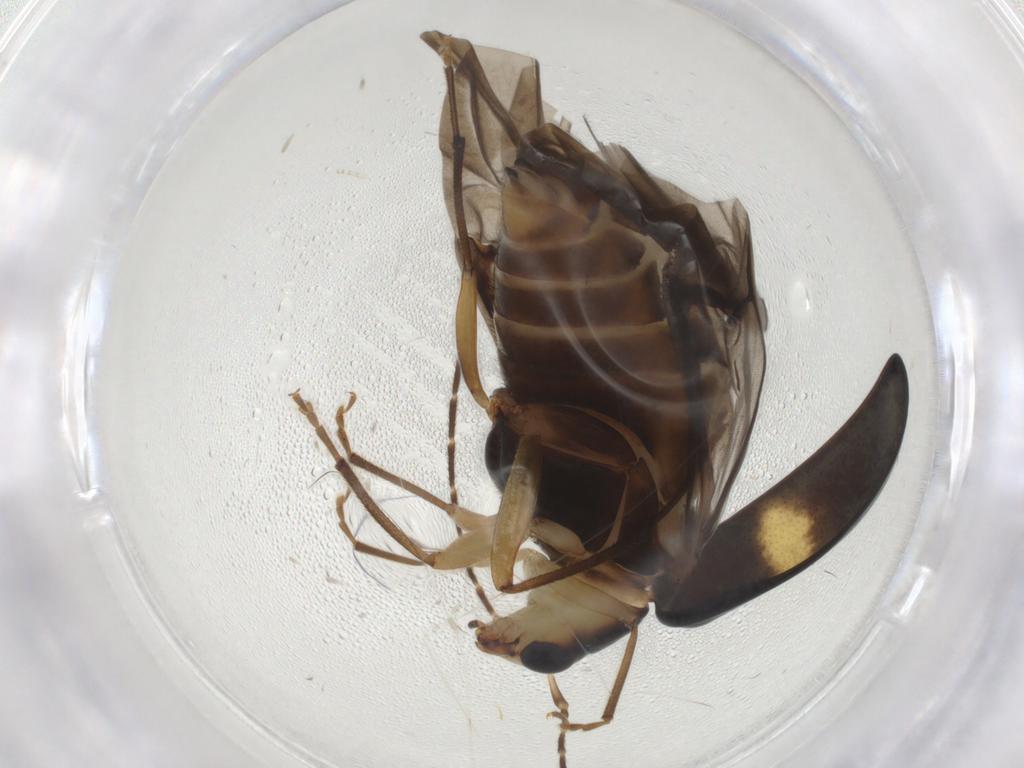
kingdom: Animalia
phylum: Arthropoda
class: Insecta
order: Coleoptera
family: Chrysomelidae
